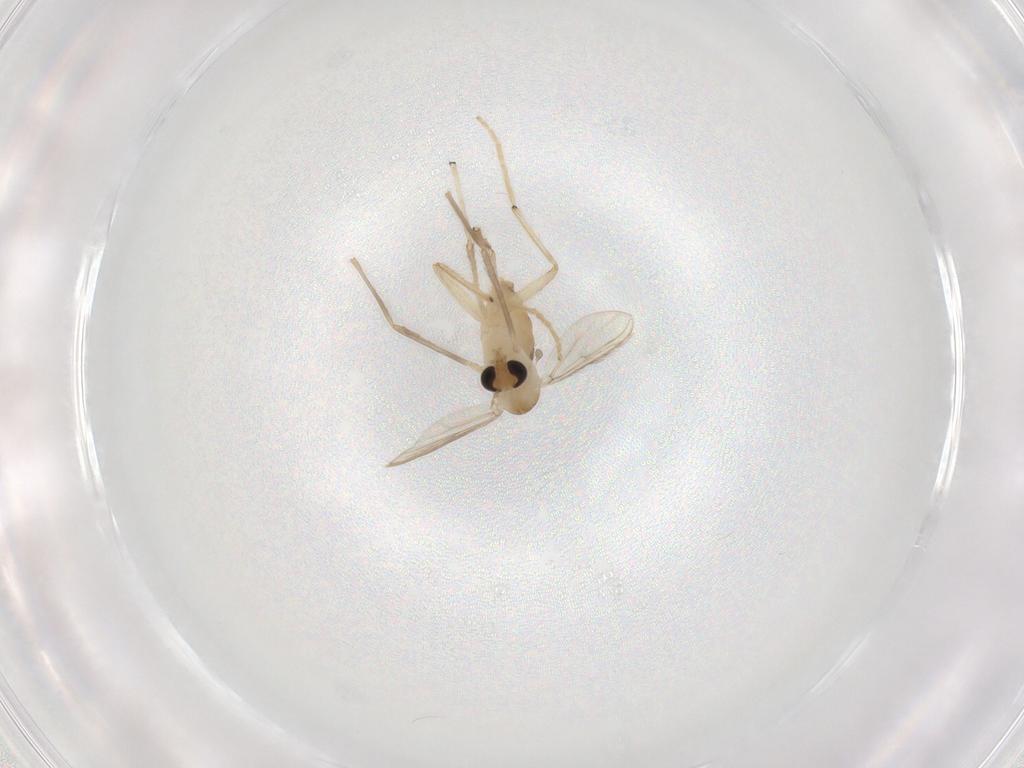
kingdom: Animalia
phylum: Arthropoda
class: Insecta
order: Diptera
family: Chironomidae
